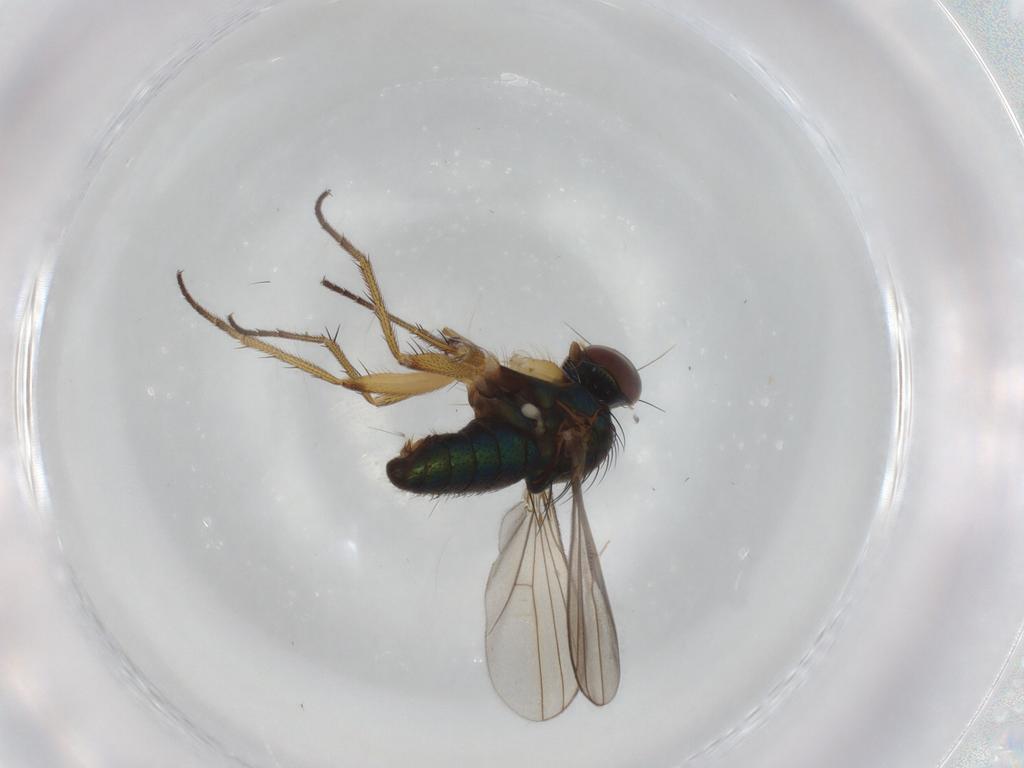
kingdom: Animalia
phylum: Arthropoda
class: Insecta
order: Diptera
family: Dolichopodidae
